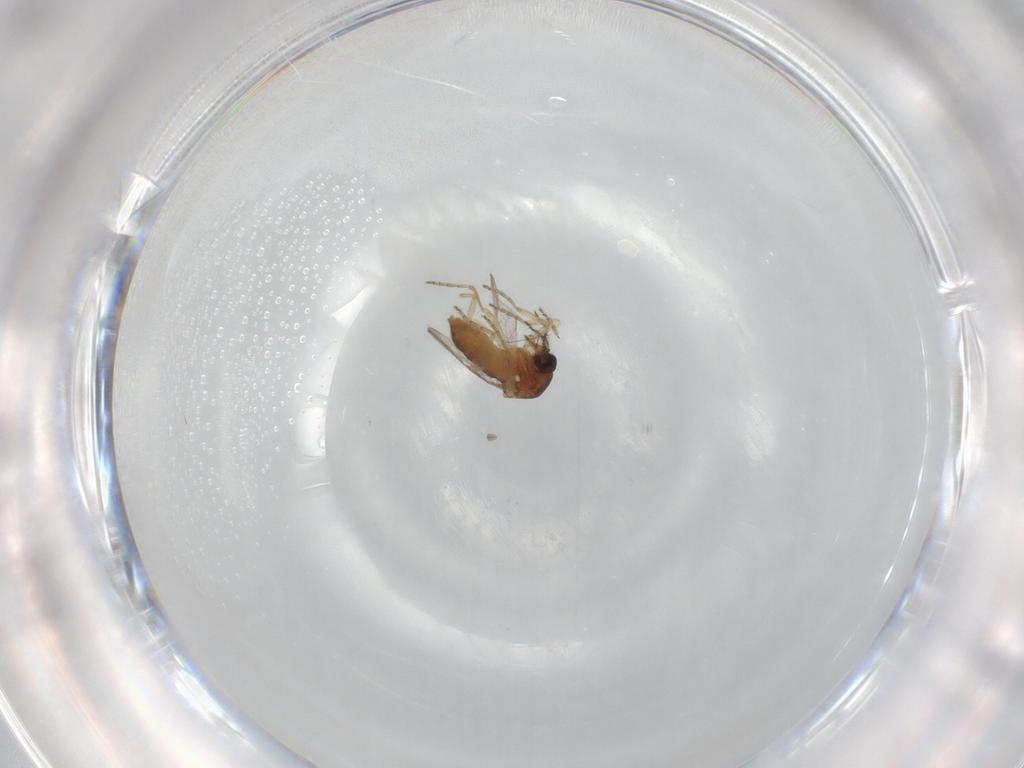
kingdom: Animalia
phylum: Arthropoda
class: Insecta
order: Diptera
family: Ceratopogonidae
